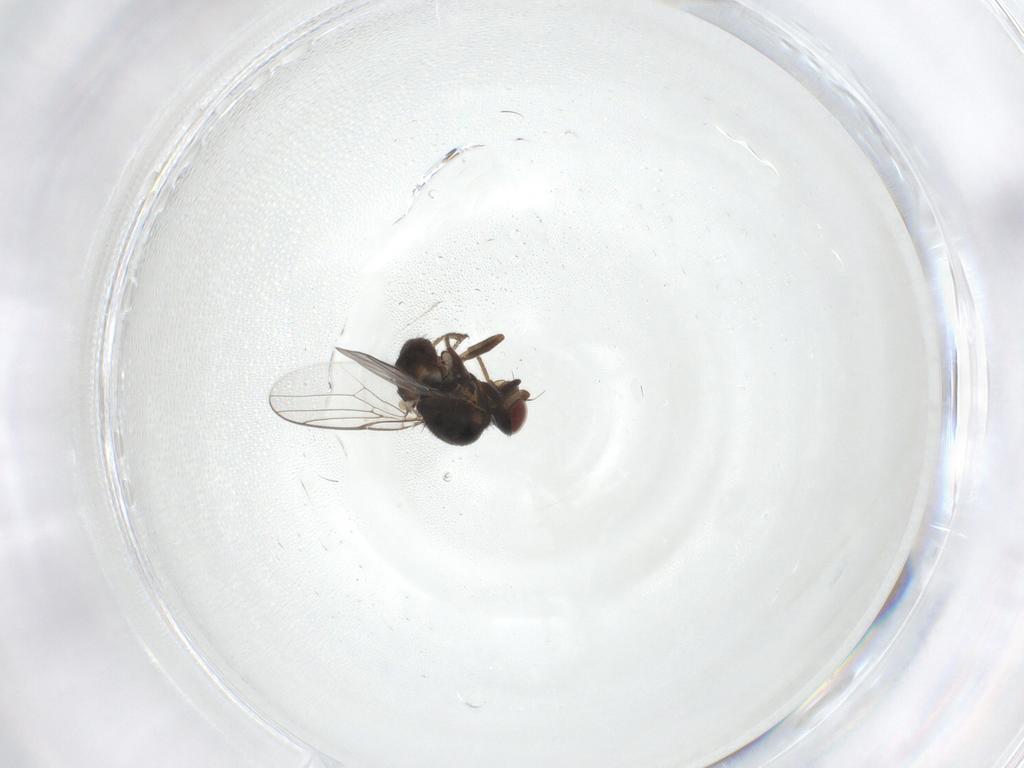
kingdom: Animalia
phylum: Arthropoda
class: Insecta
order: Diptera
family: Chloropidae
